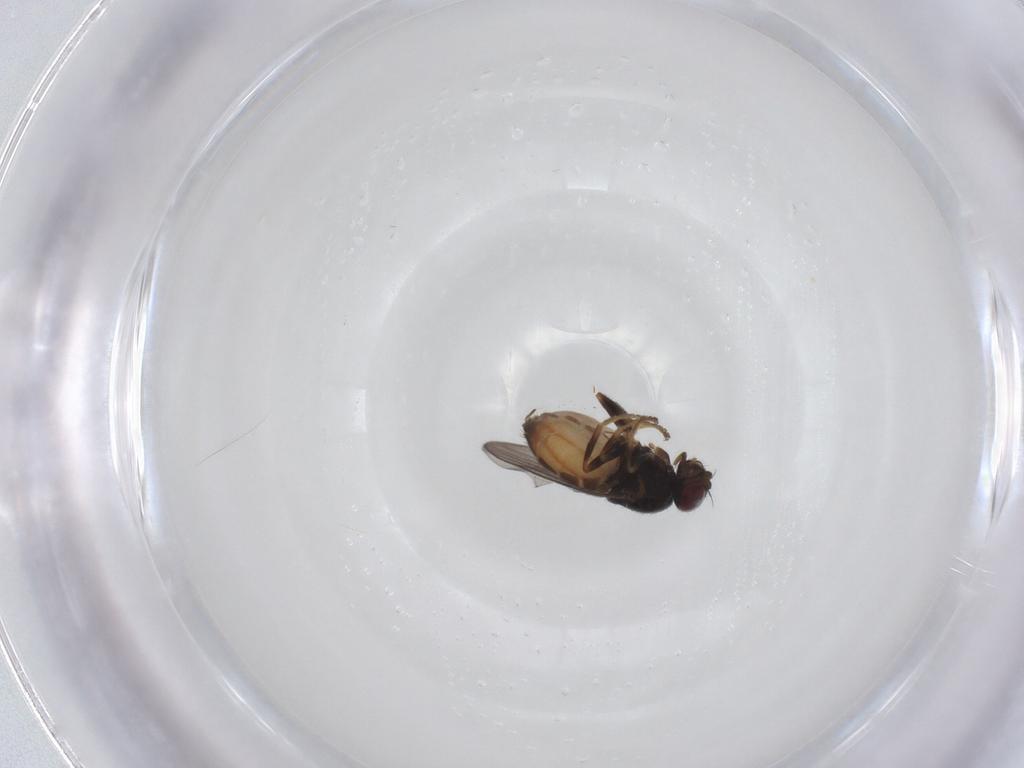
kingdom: Animalia
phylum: Arthropoda
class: Insecta
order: Diptera
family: Chloropidae
